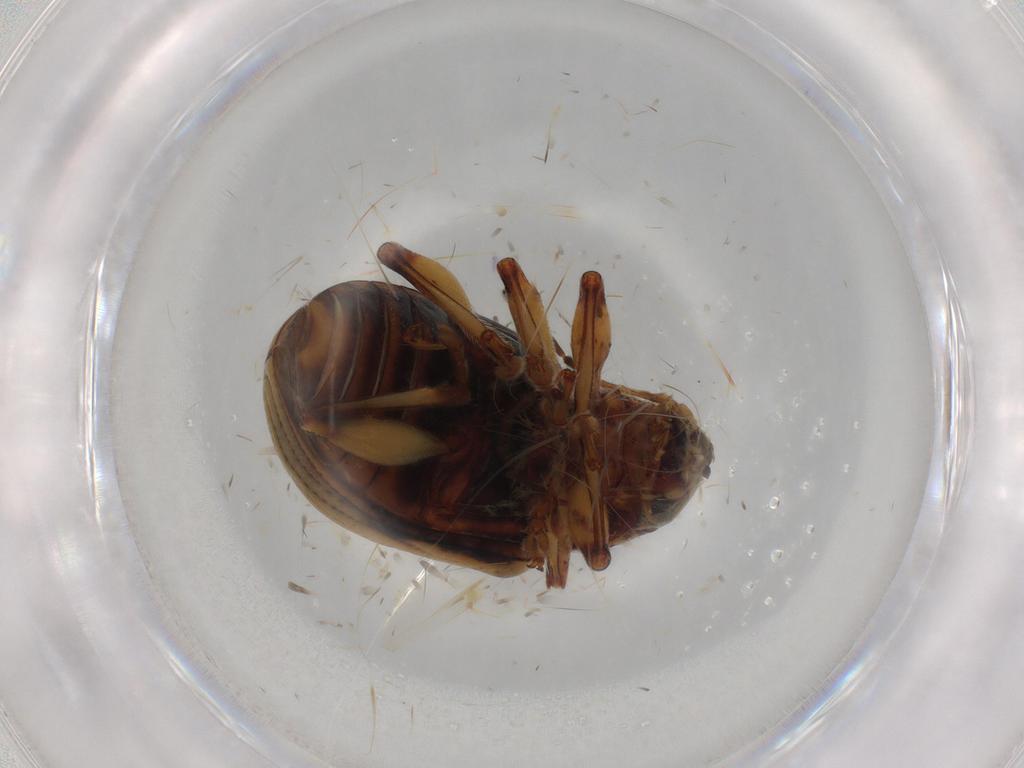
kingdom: Animalia
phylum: Arthropoda
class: Insecta
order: Coleoptera
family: Chrysomelidae
